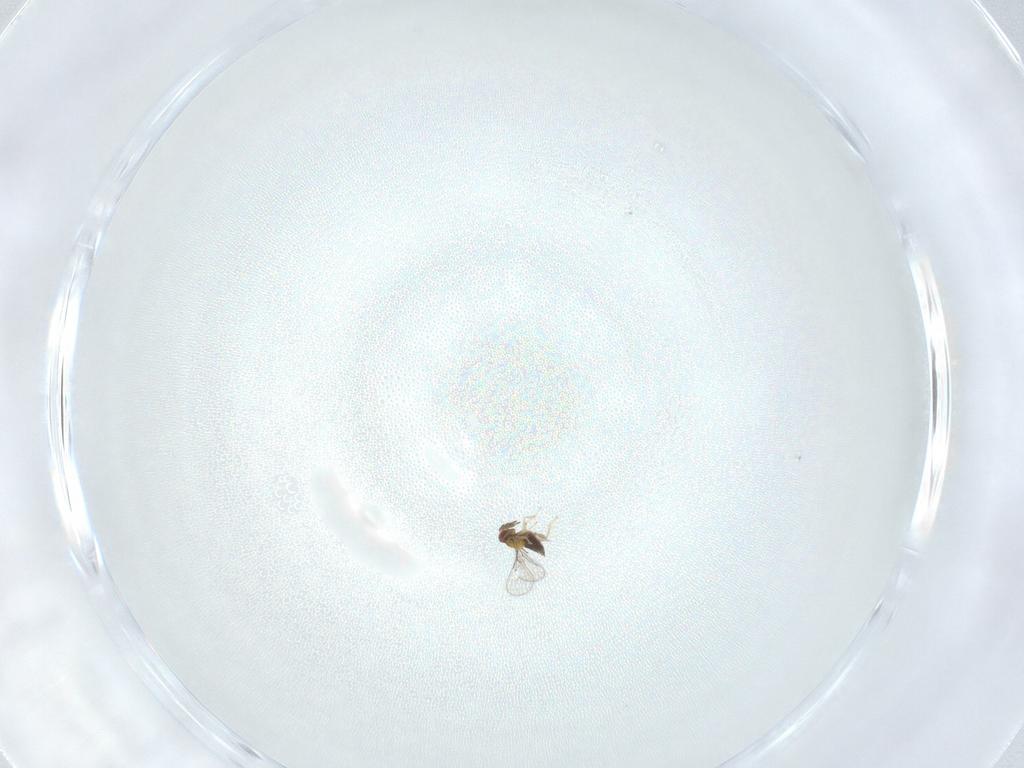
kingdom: Animalia
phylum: Arthropoda
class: Insecta
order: Hymenoptera
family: Trichogrammatidae
